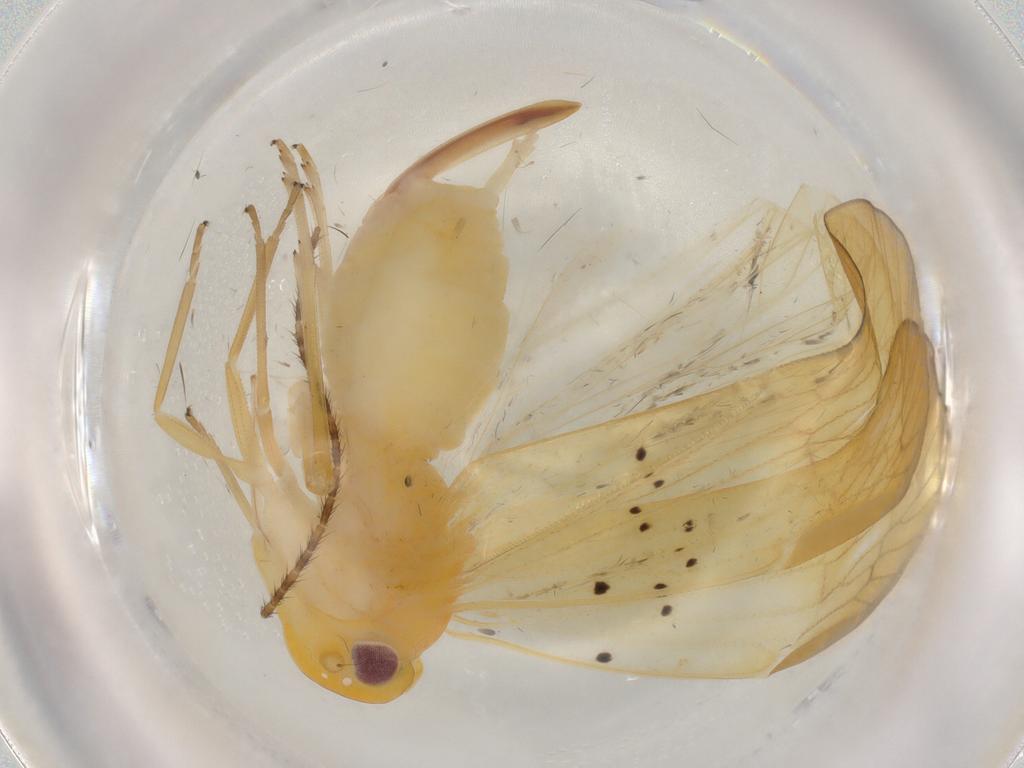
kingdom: Animalia
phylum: Arthropoda
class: Insecta
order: Hemiptera
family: Cixiidae
